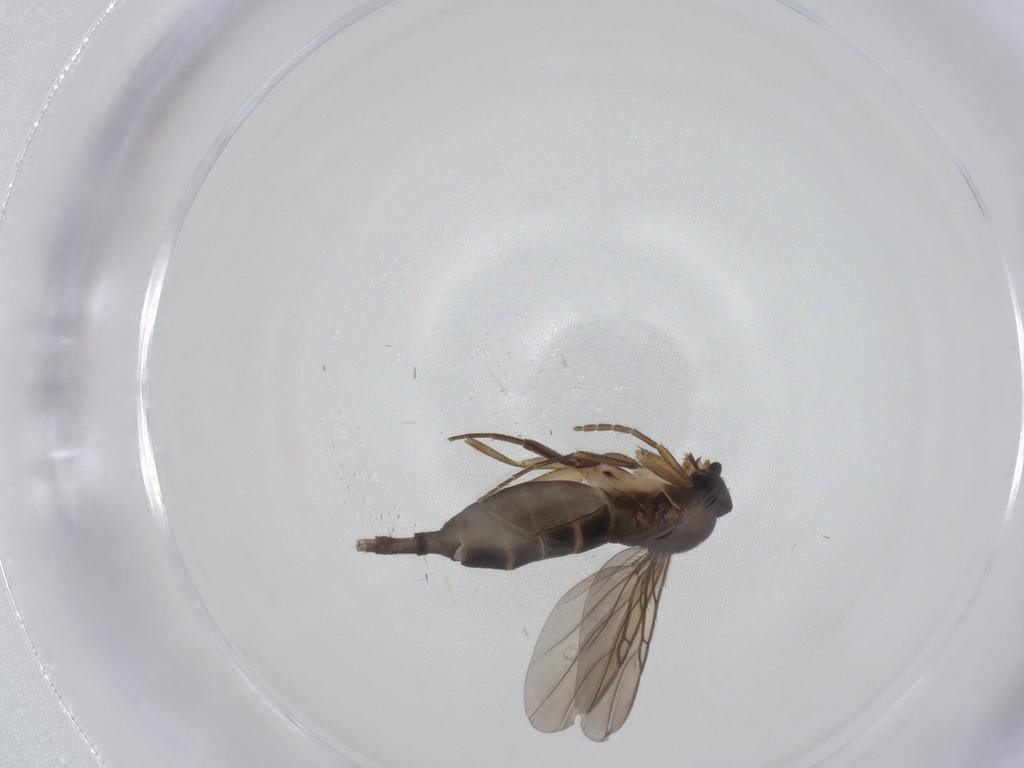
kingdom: Animalia
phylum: Arthropoda
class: Insecta
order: Diptera
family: Phoridae
